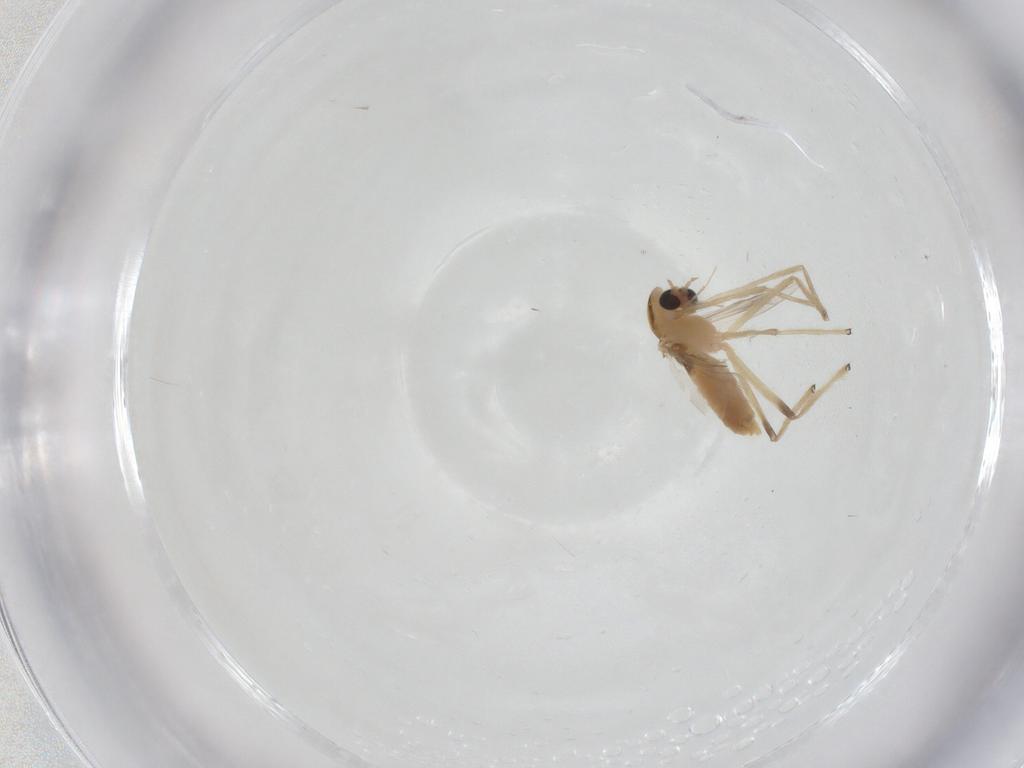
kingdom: Animalia
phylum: Arthropoda
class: Insecta
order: Diptera
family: Chironomidae
